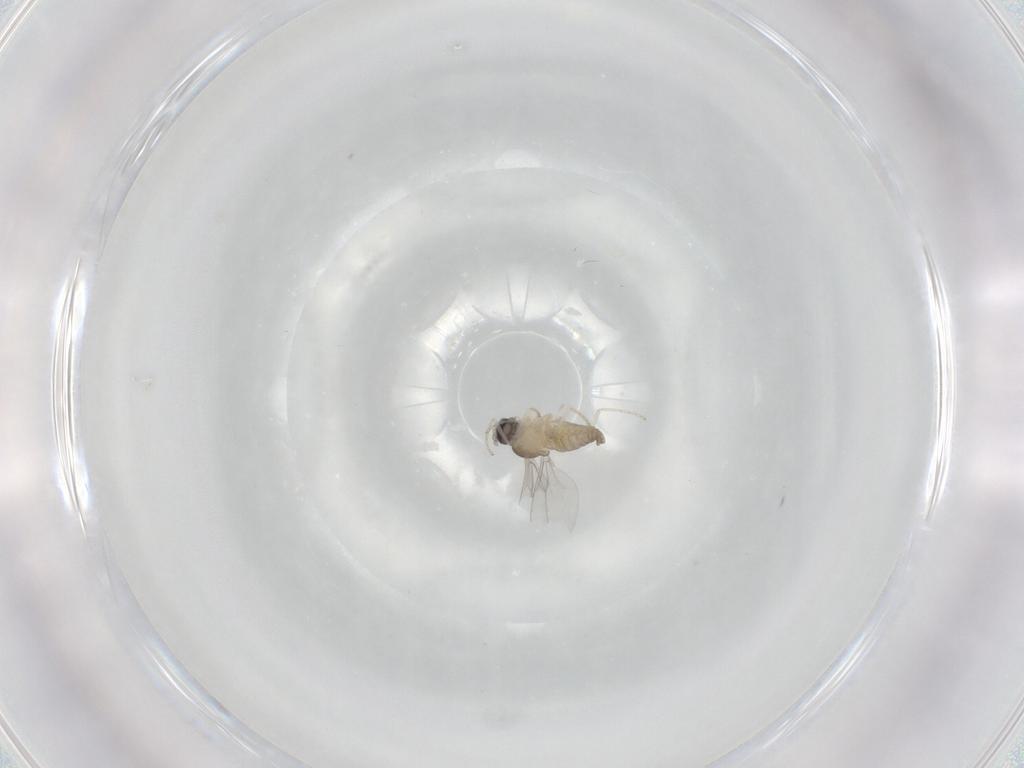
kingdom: Animalia
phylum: Arthropoda
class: Insecta
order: Diptera
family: Cecidomyiidae
